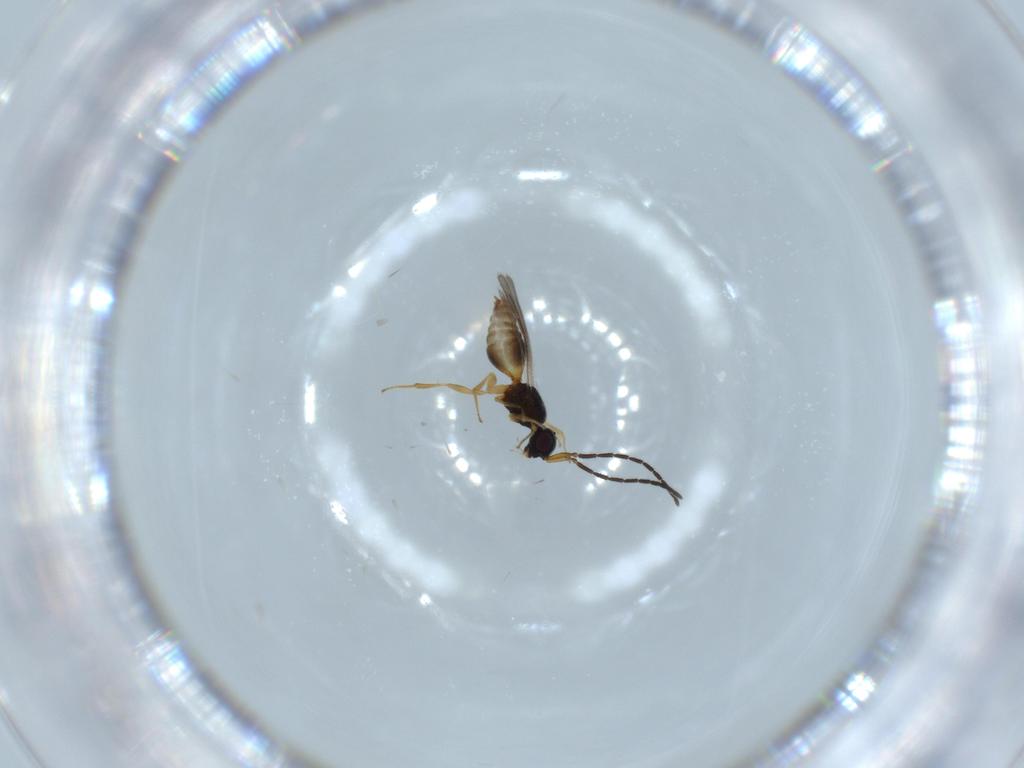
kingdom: Animalia
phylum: Arthropoda
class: Insecta
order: Hymenoptera
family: Megaspilidae
